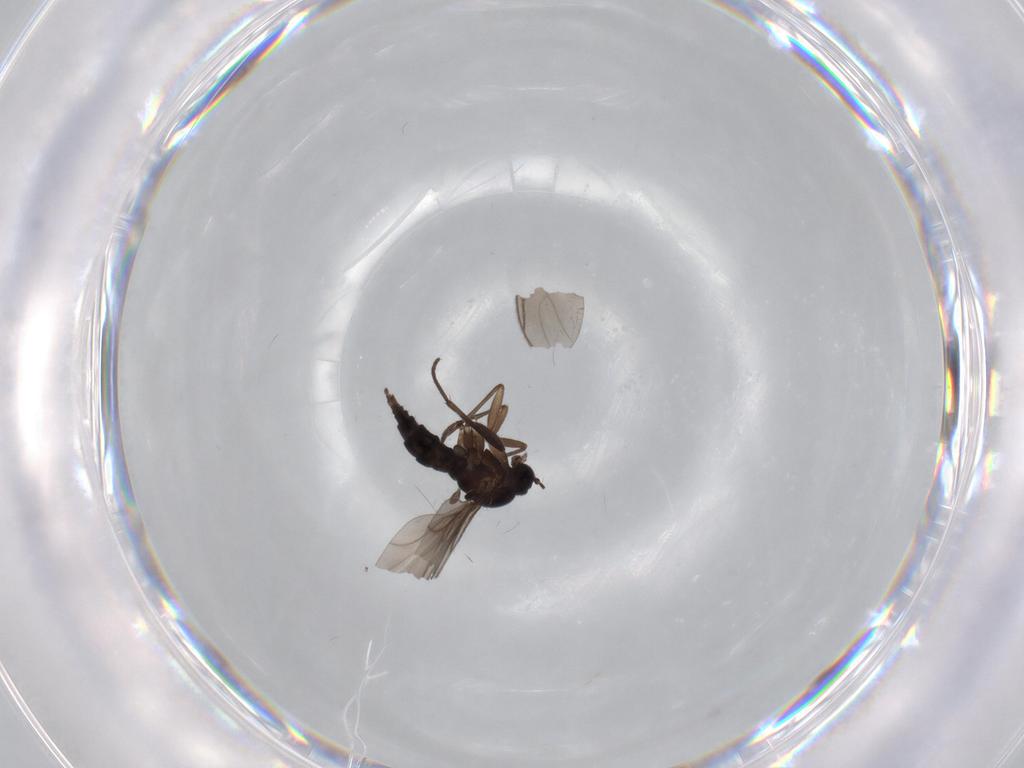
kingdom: Animalia
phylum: Arthropoda
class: Insecta
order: Diptera
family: Sciaridae
